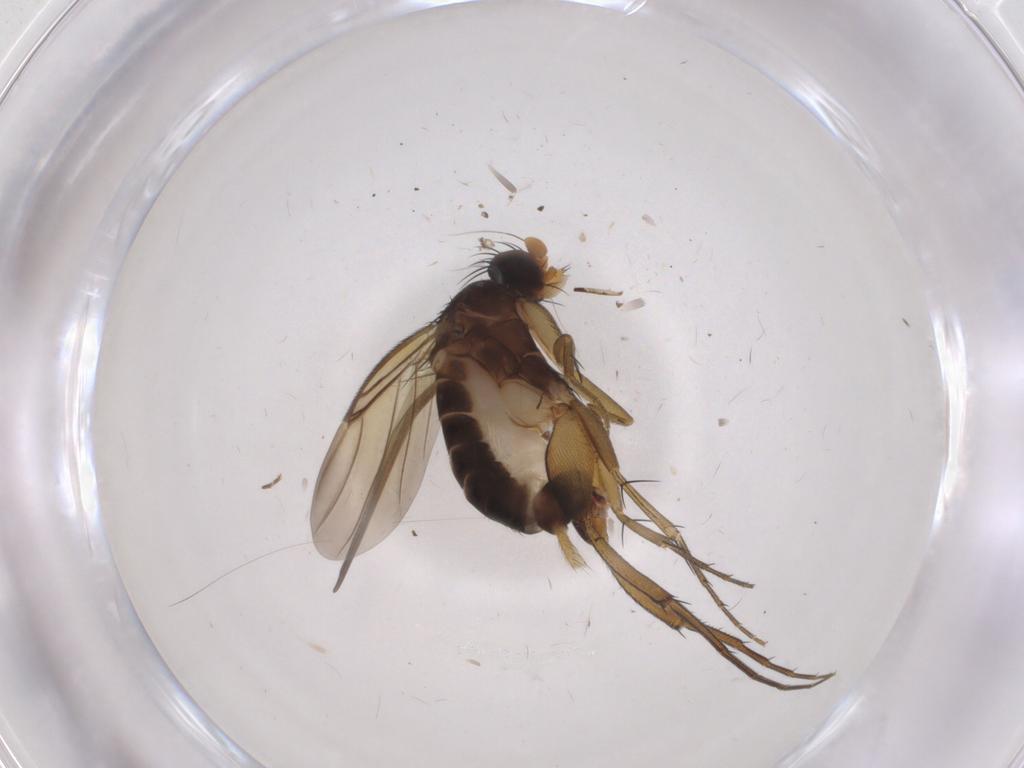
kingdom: Animalia
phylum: Arthropoda
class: Insecta
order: Diptera
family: Phoridae
